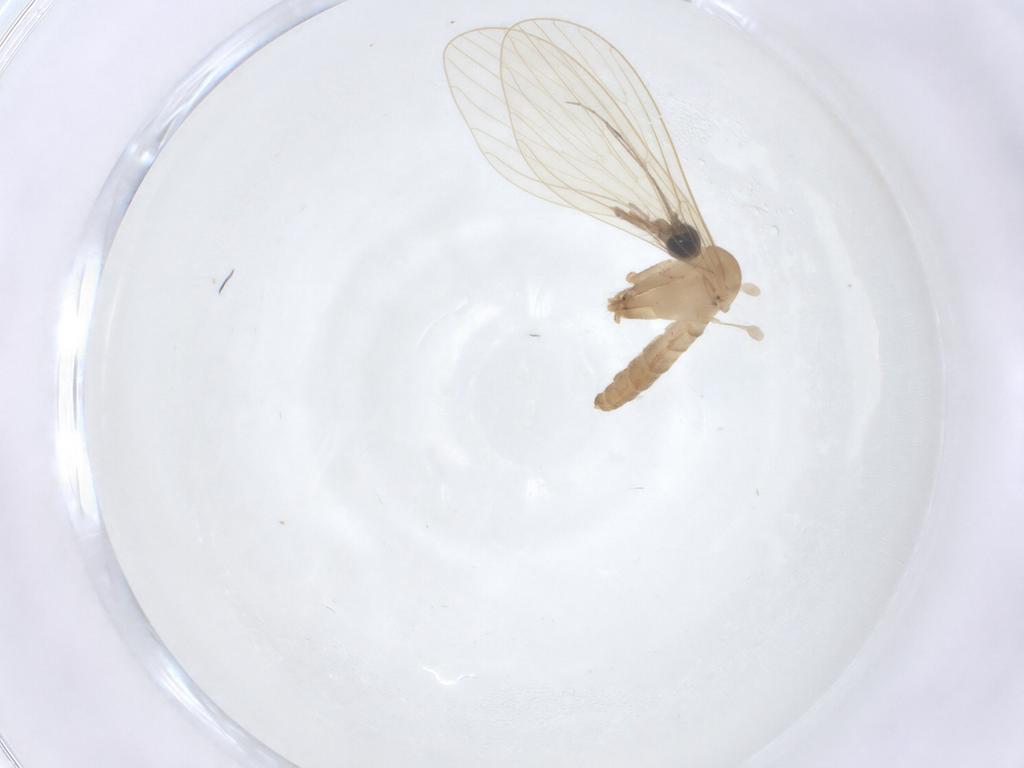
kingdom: Animalia
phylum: Arthropoda
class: Insecta
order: Diptera
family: Psychodidae
